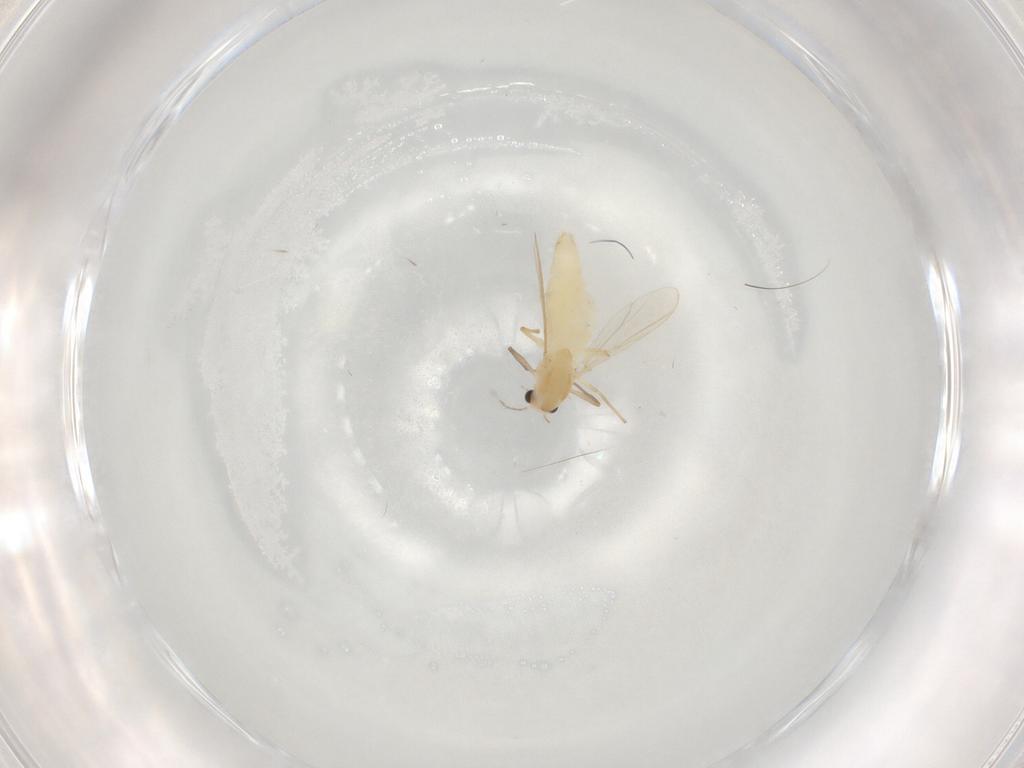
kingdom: Animalia
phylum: Arthropoda
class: Insecta
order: Diptera
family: Chironomidae
